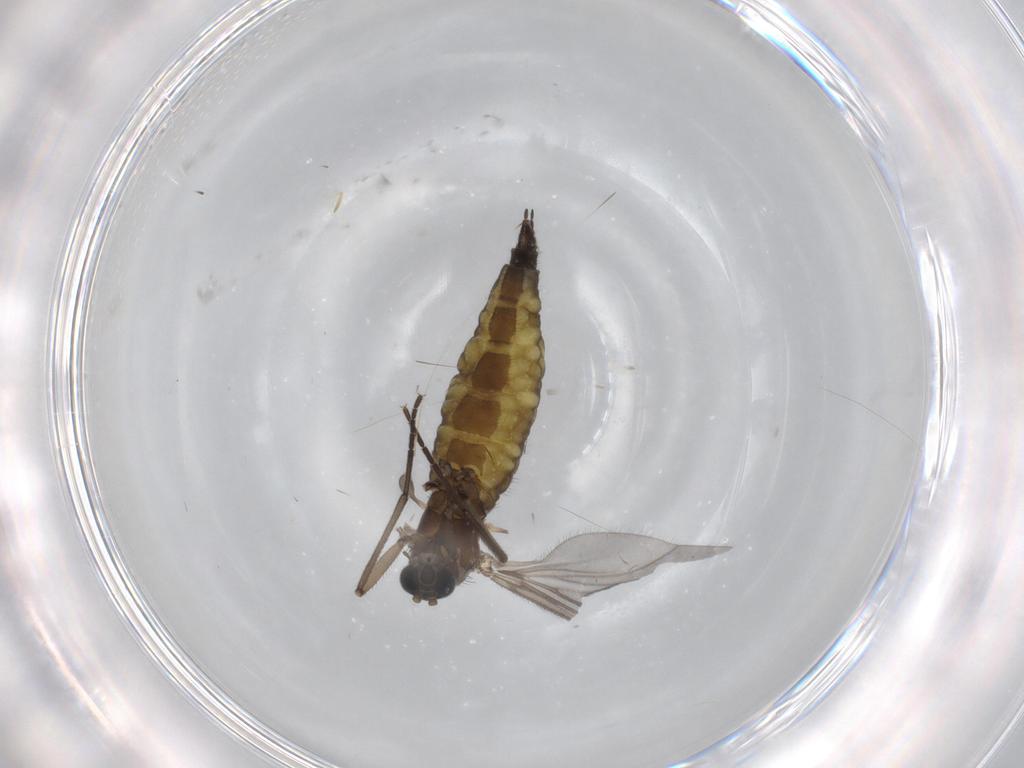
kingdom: Animalia
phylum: Arthropoda
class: Insecta
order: Diptera
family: Sciaridae
